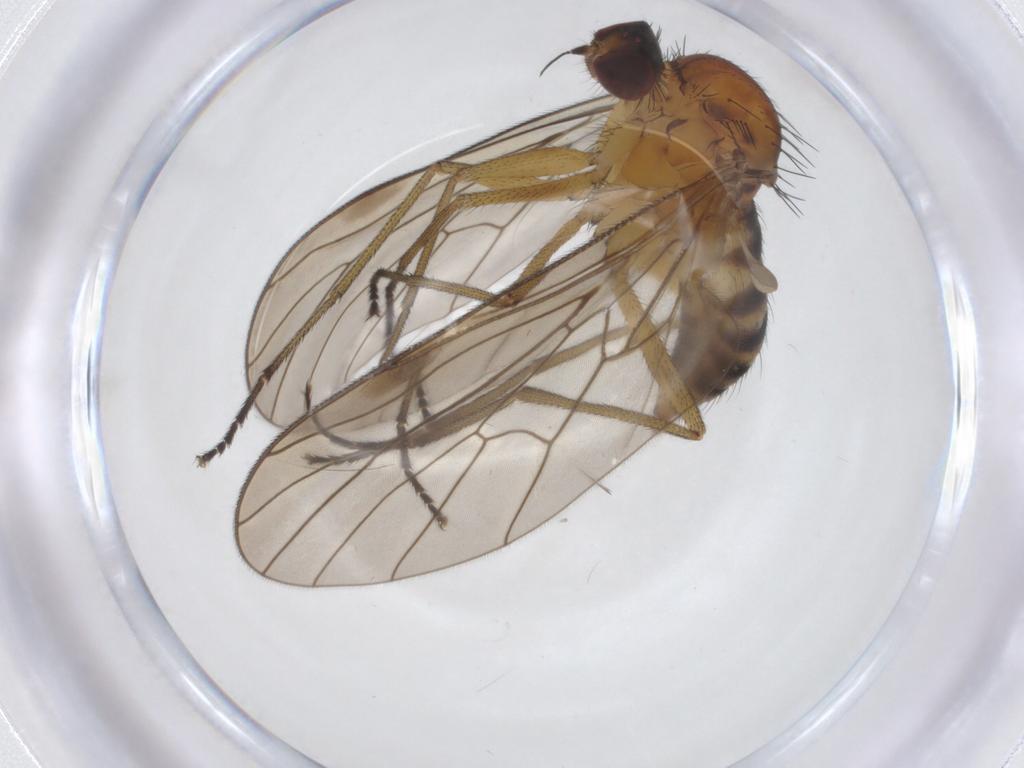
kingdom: Animalia
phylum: Arthropoda
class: Insecta
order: Diptera
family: Brachystomatidae
